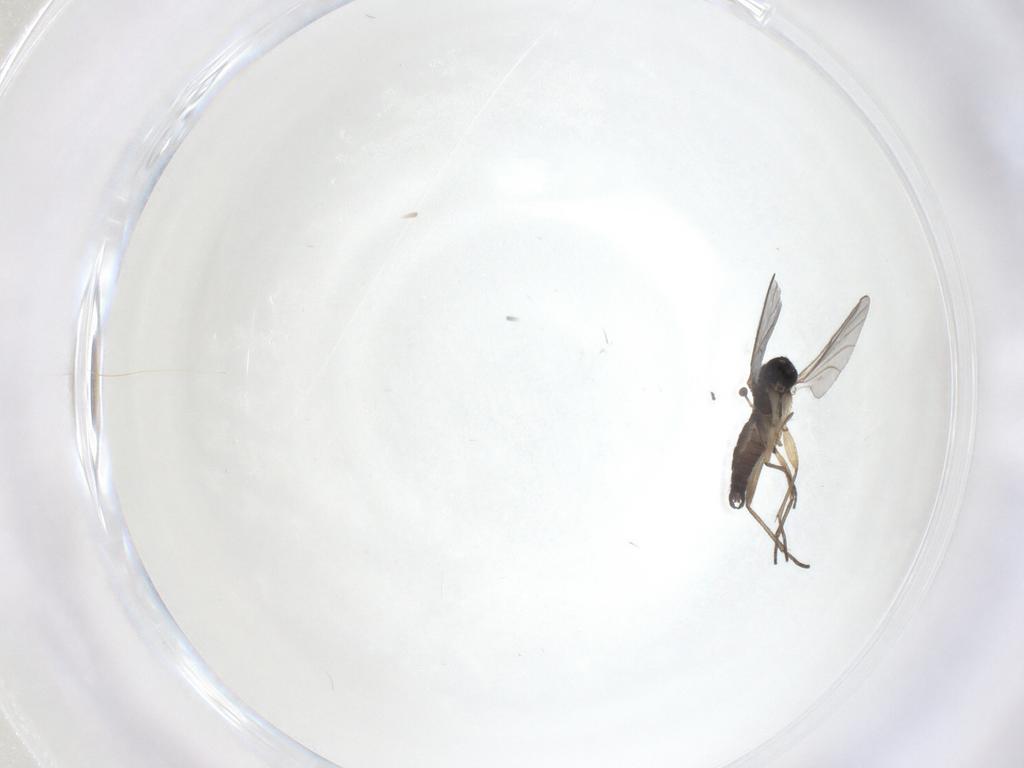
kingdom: Animalia
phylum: Arthropoda
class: Insecta
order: Diptera
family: Sciaridae
